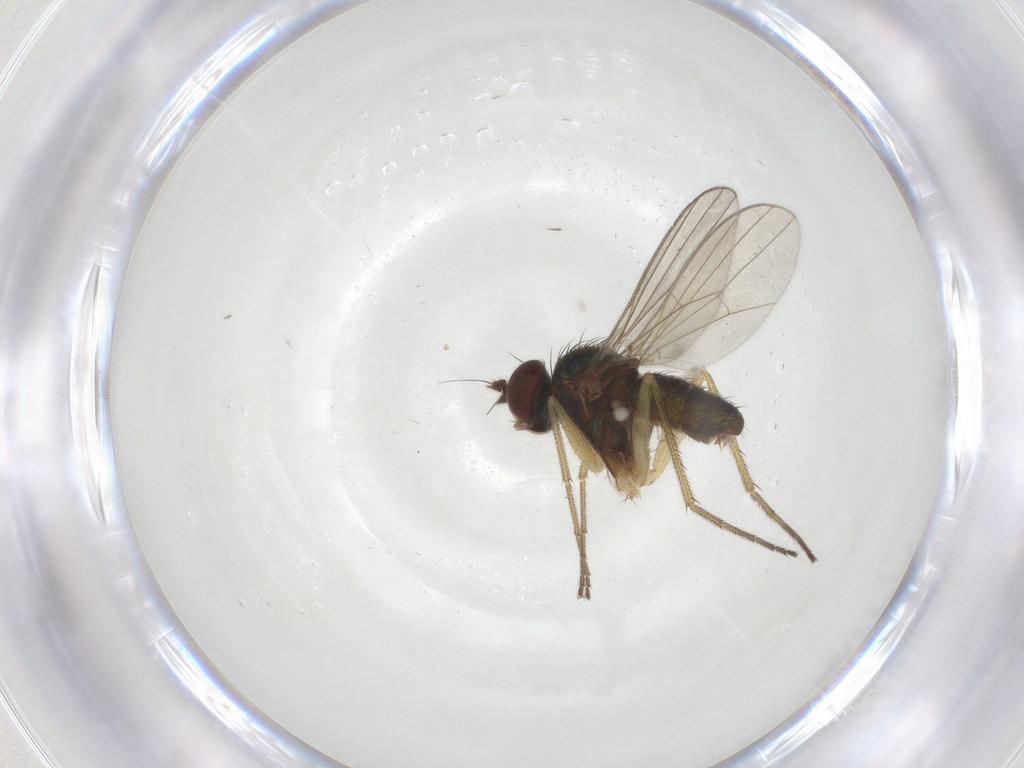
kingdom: Animalia
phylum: Arthropoda
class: Insecta
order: Diptera
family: Dolichopodidae
